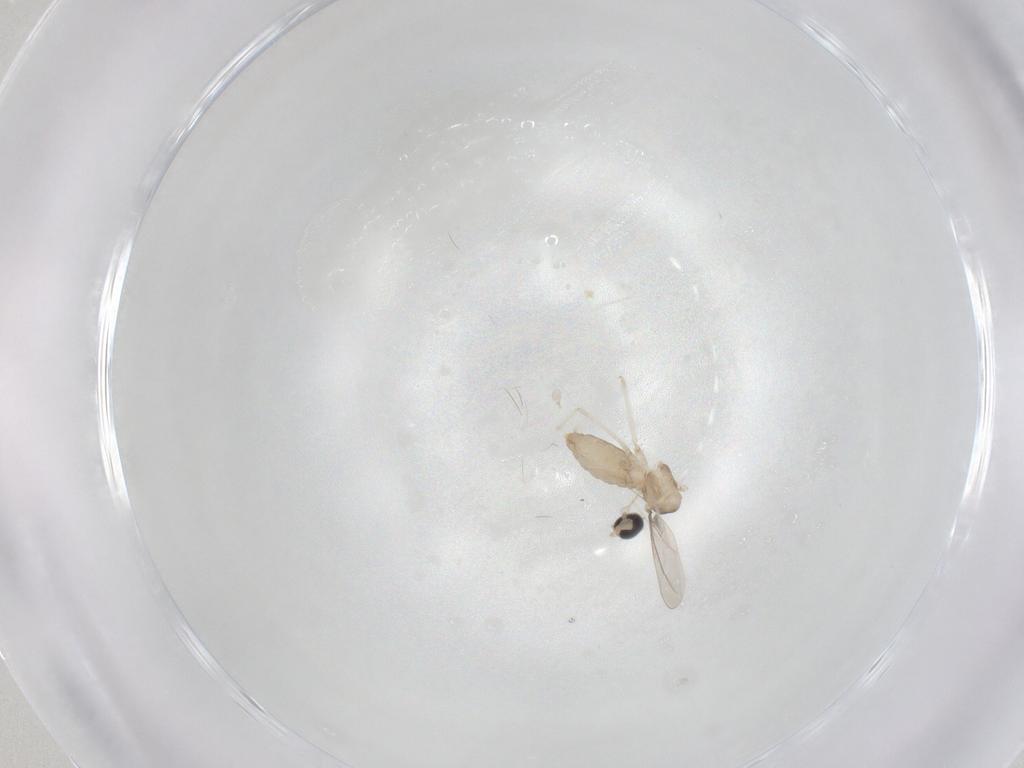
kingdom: Animalia
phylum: Arthropoda
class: Insecta
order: Diptera
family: Cecidomyiidae
